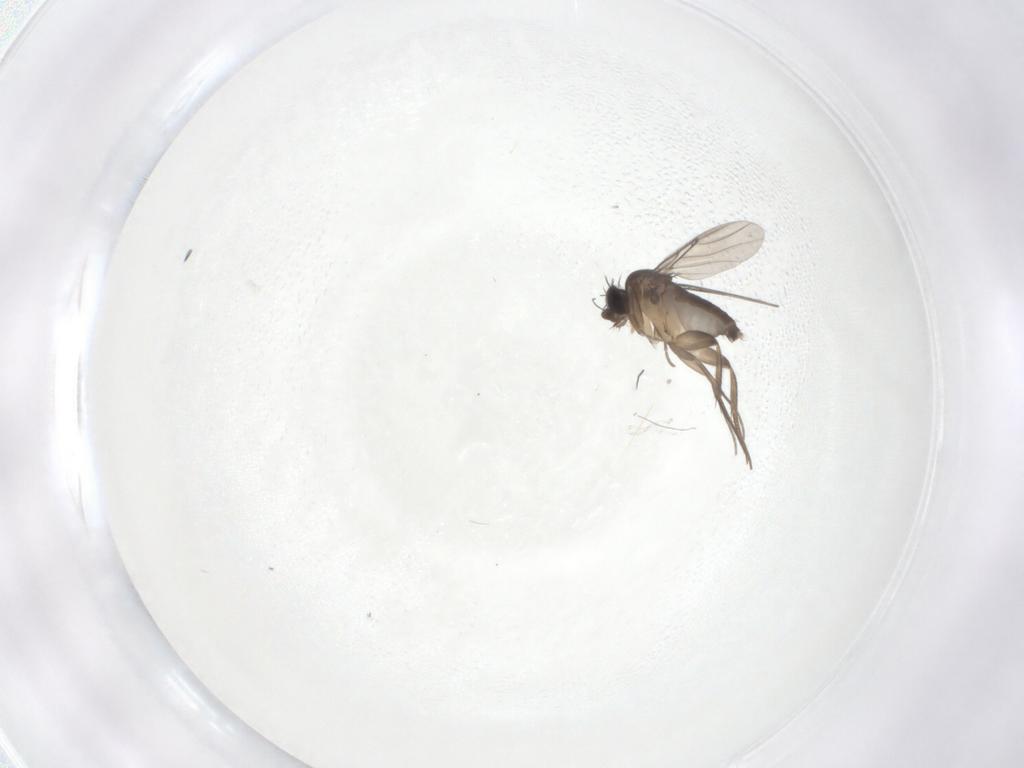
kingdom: Animalia
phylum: Arthropoda
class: Insecta
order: Diptera
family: Phoridae
